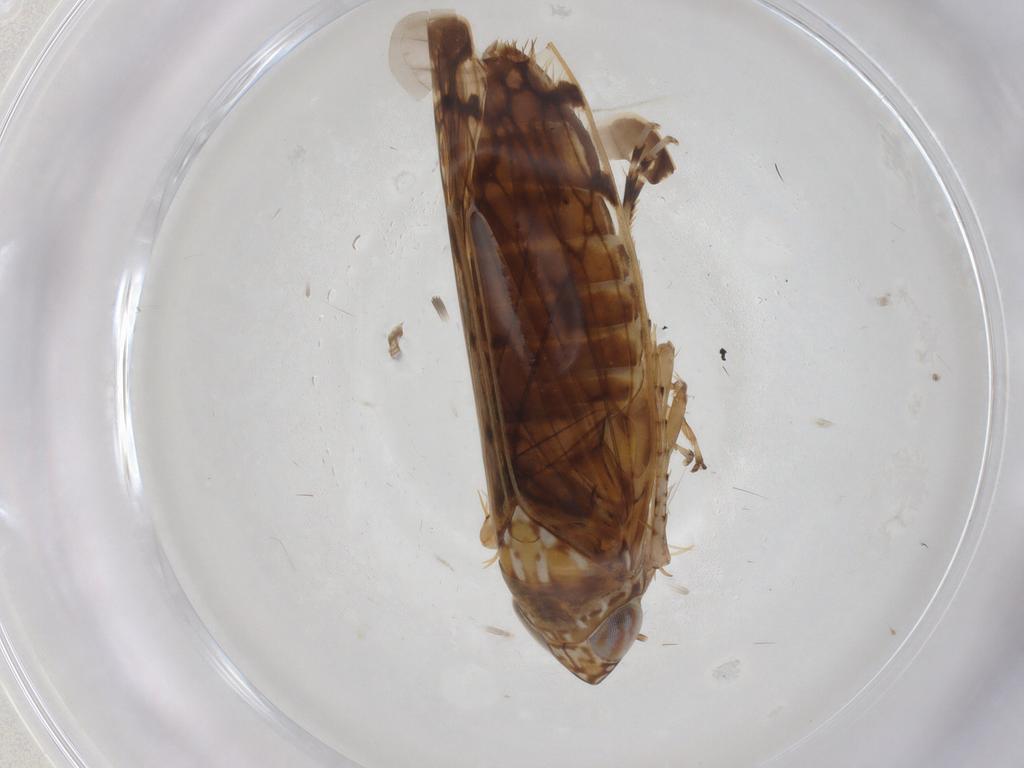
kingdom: Animalia
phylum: Arthropoda
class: Insecta
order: Hemiptera
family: Cicadellidae
